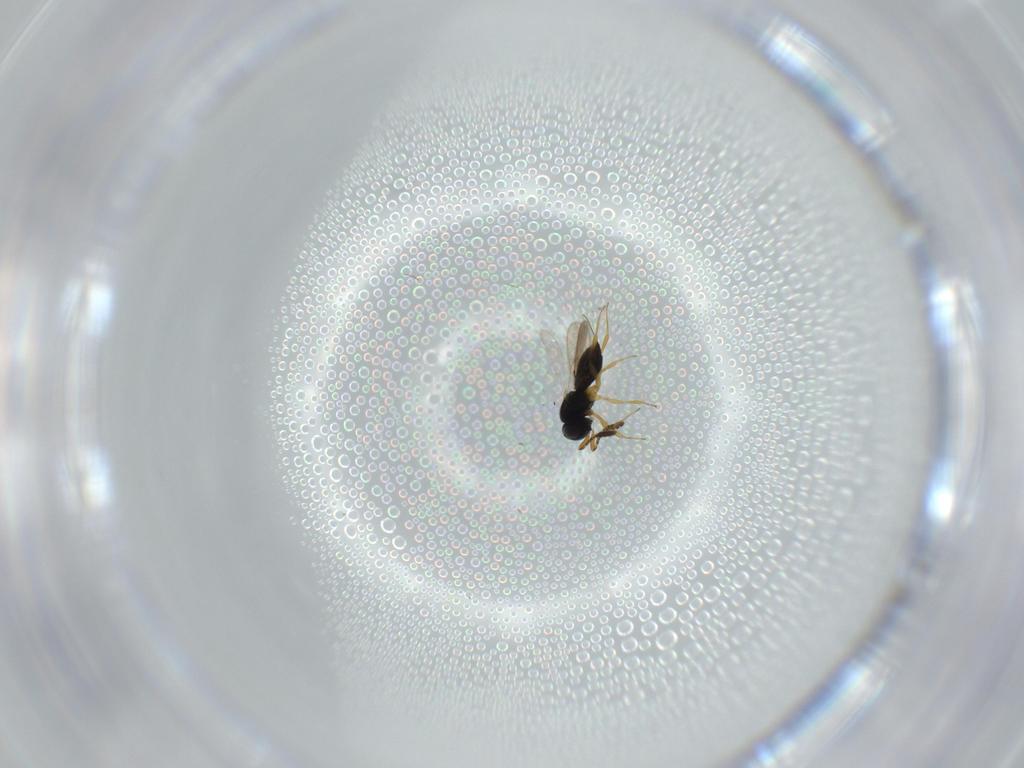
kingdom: Animalia
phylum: Arthropoda
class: Insecta
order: Hymenoptera
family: Scelionidae
